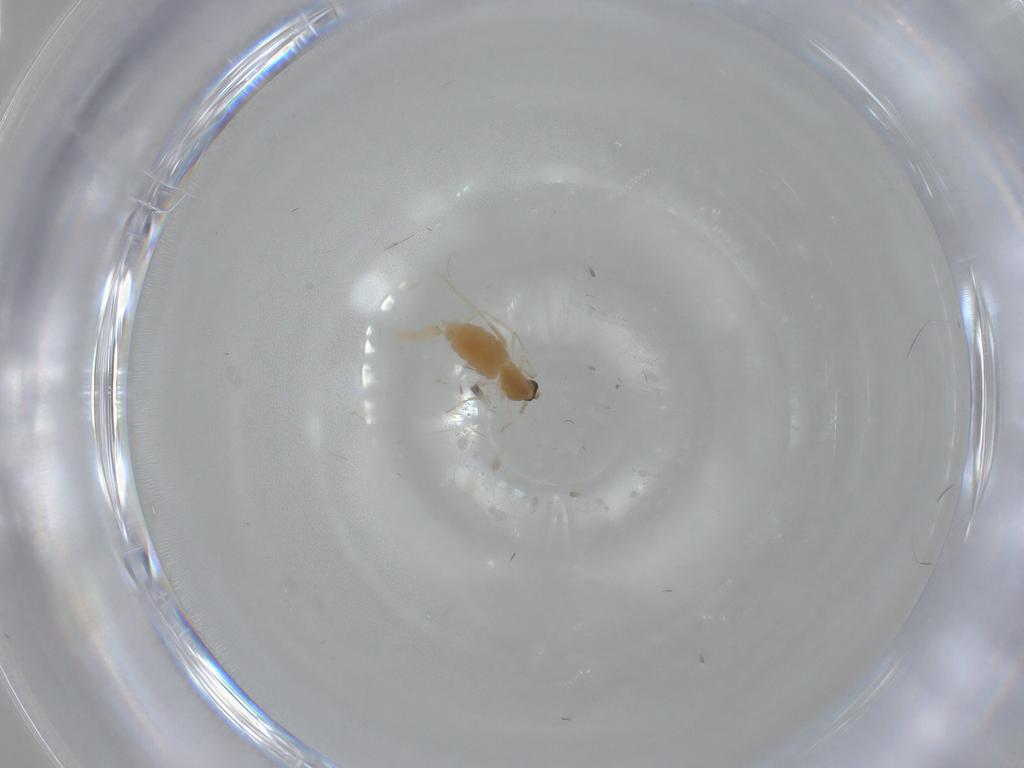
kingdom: Animalia
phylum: Arthropoda
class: Insecta
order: Diptera
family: Cecidomyiidae
